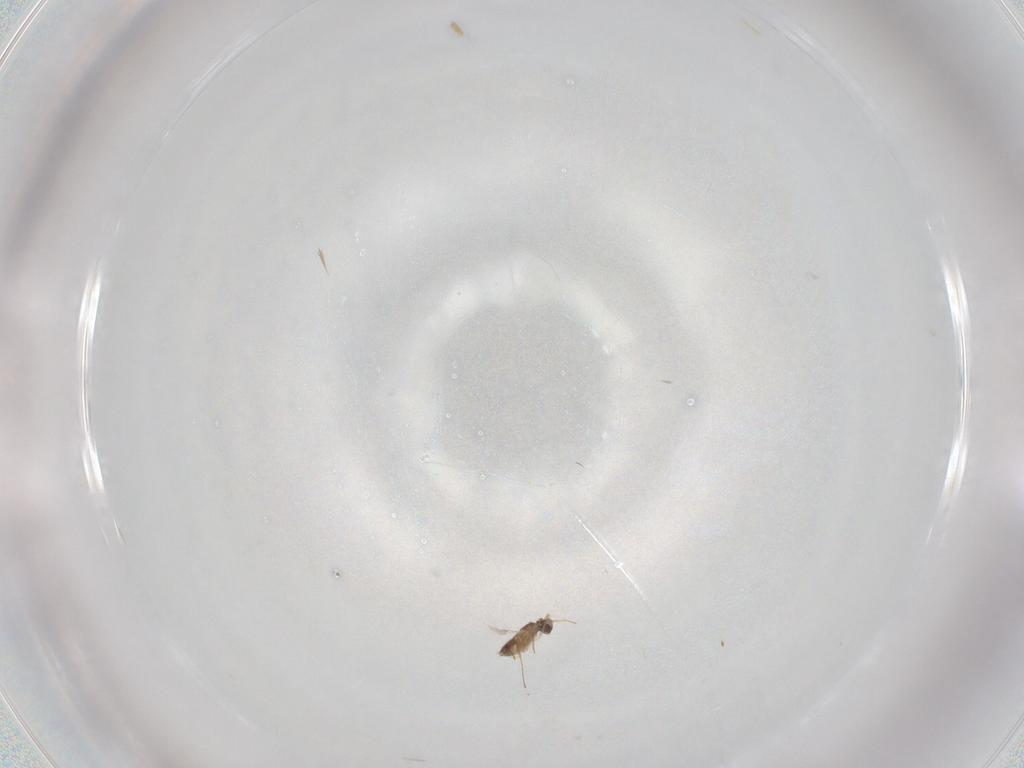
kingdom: Animalia
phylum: Arthropoda
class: Insecta
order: Hymenoptera
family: Mymaridae
